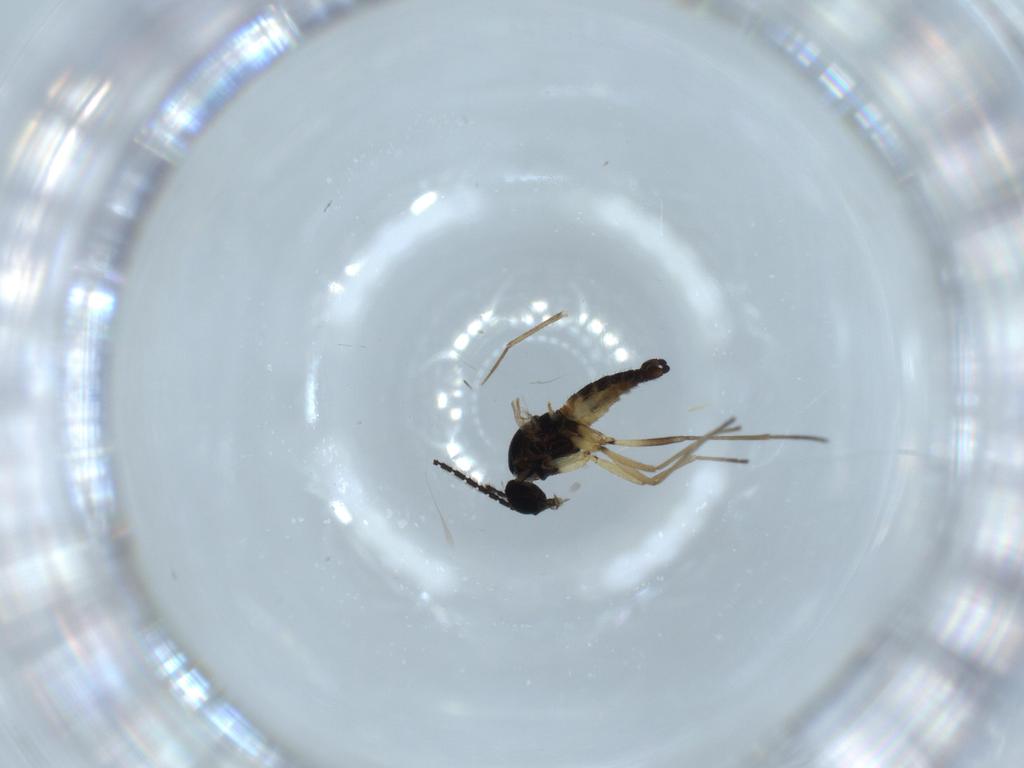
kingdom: Animalia
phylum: Arthropoda
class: Insecta
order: Diptera
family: Sciaridae
